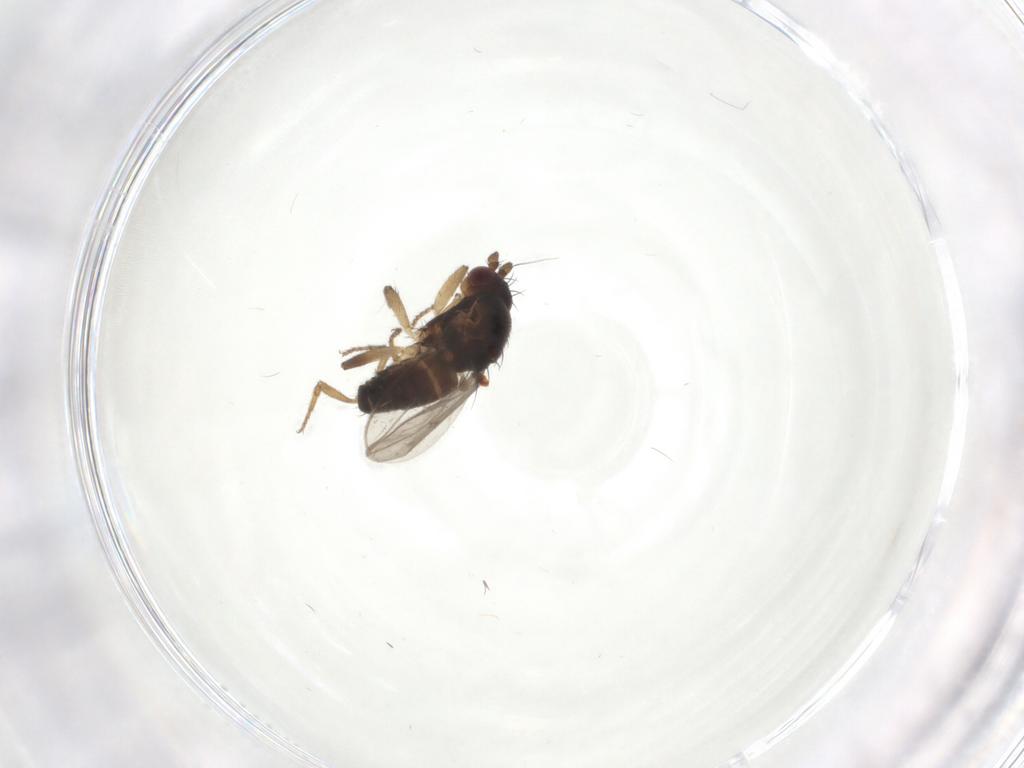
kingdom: Animalia
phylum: Arthropoda
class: Insecta
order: Diptera
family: Sphaeroceridae
